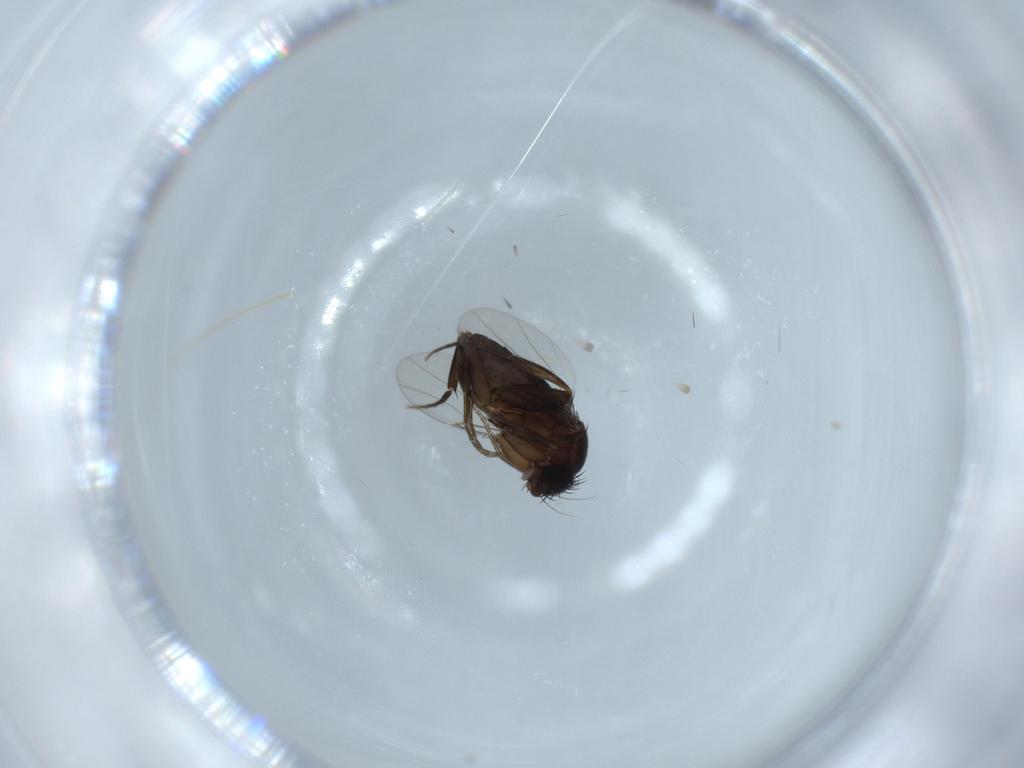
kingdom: Animalia
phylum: Arthropoda
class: Insecta
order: Diptera
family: Phoridae
